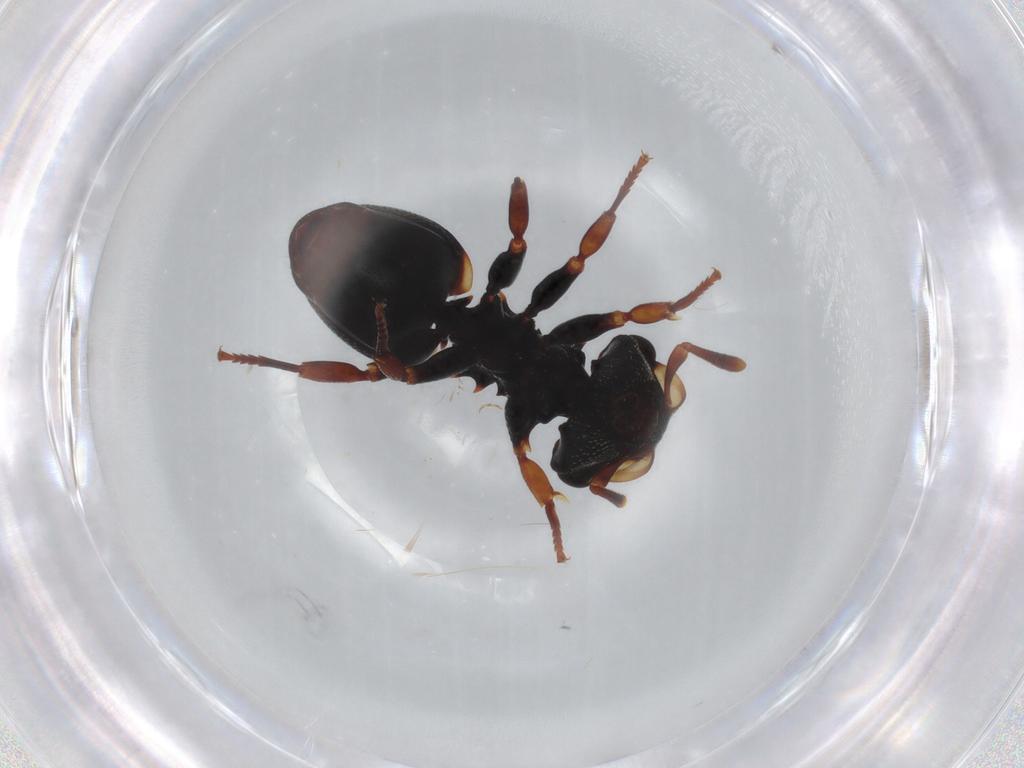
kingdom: Animalia
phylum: Arthropoda
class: Insecta
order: Hymenoptera
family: Formicidae
